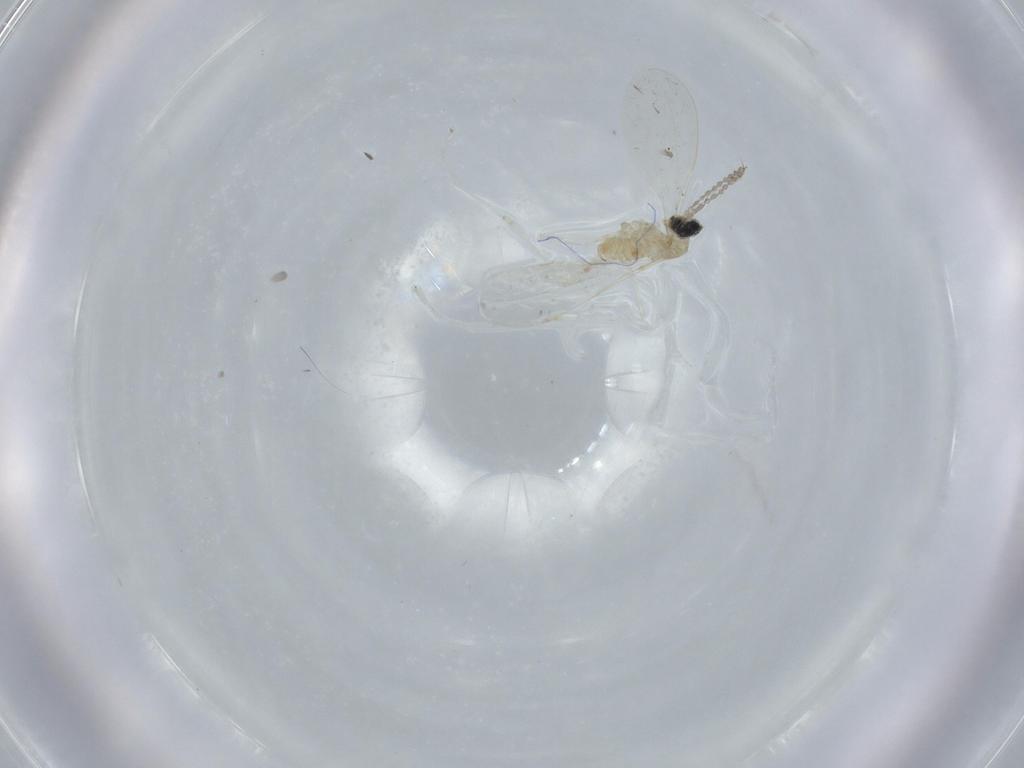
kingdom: Animalia
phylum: Arthropoda
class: Insecta
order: Diptera
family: Cecidomyiidae
